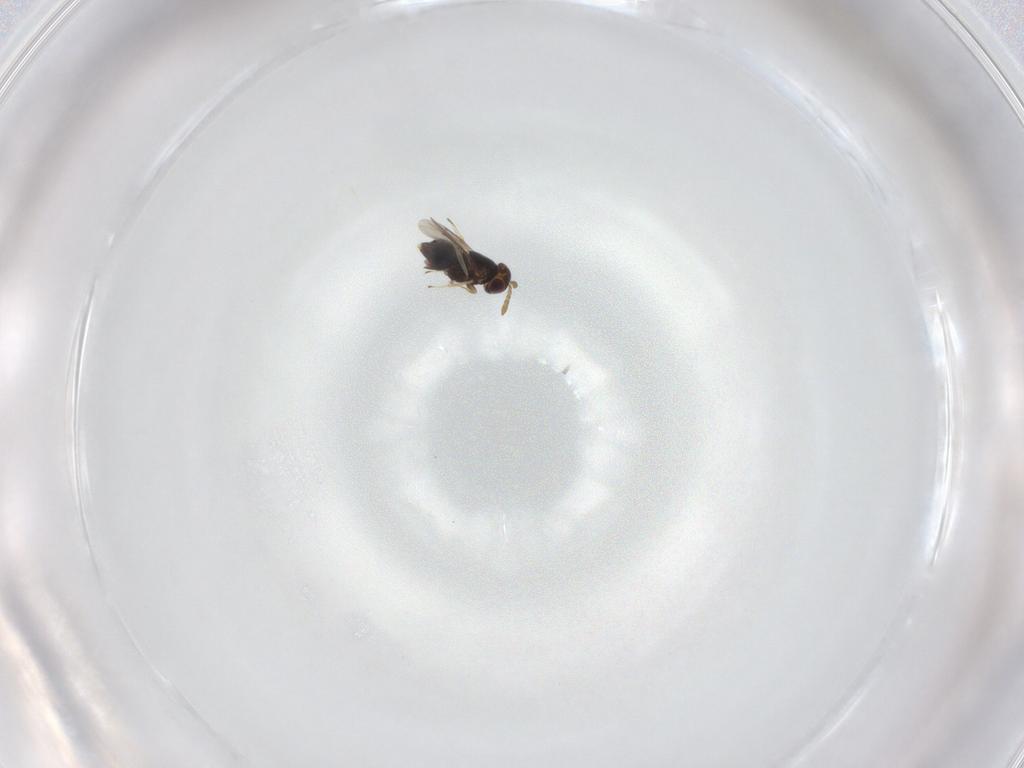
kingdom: Animalia
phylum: Arthropoda
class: Insecta
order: Hymenoptera
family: Aphelinidae
